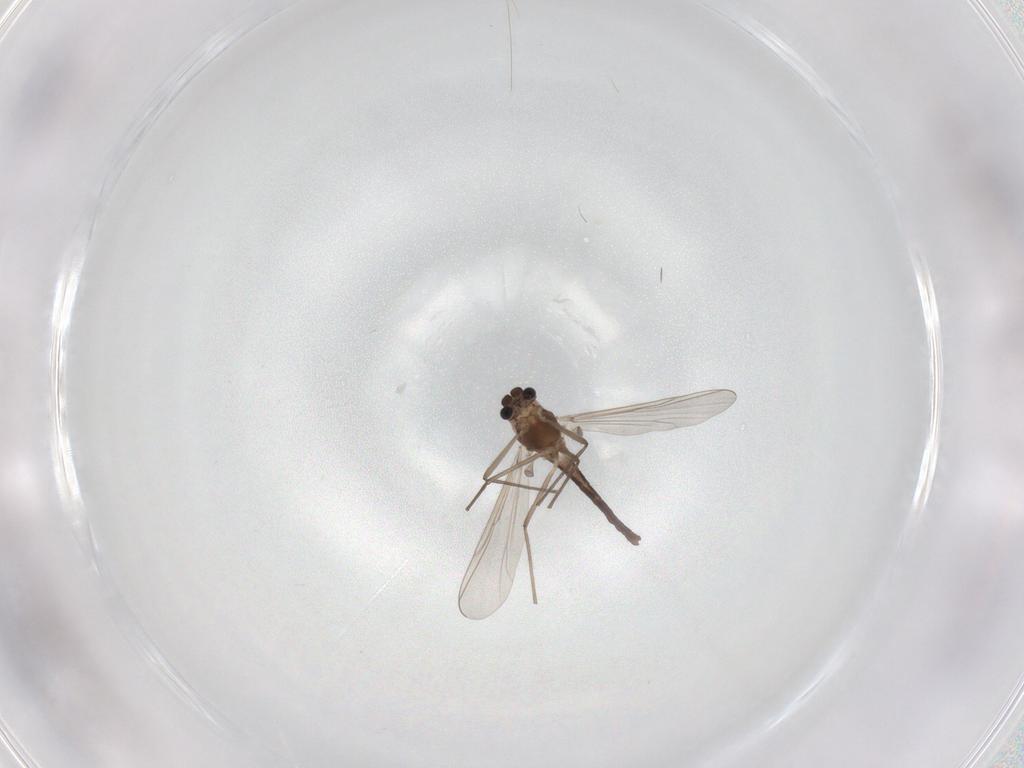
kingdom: Animalia
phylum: Arthropoda
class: Insecta
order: Diptera
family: Chironomidae
